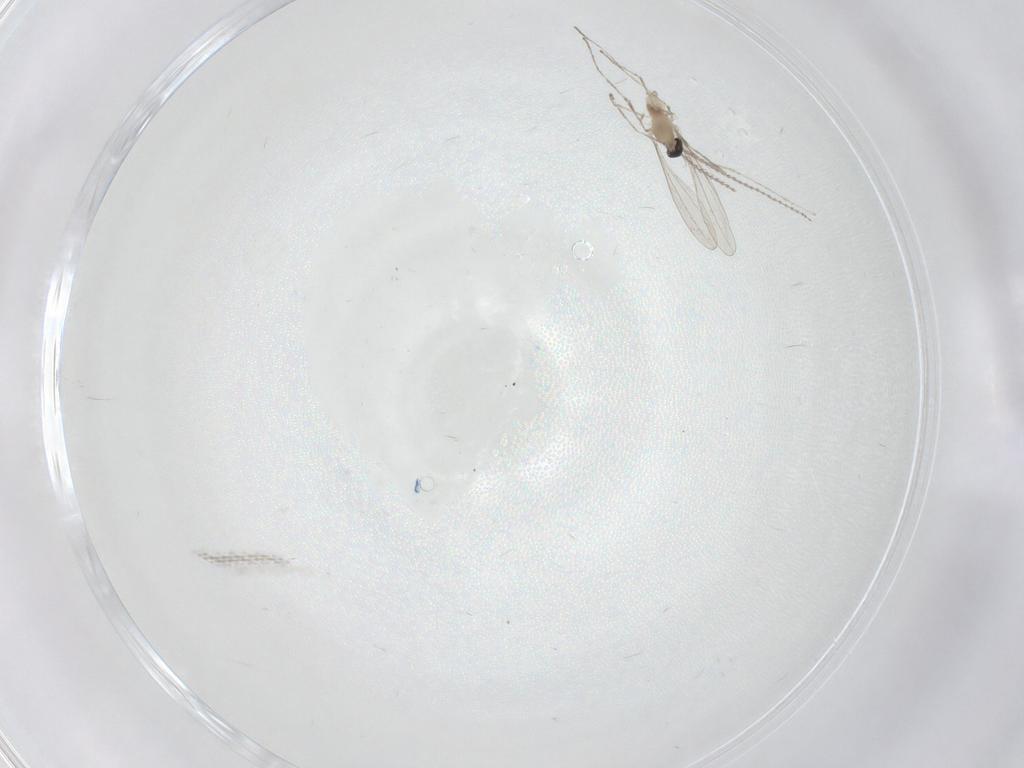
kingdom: Animalia
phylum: Arthropoda
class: Insecta
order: Diptera
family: Cecidomyiidae
